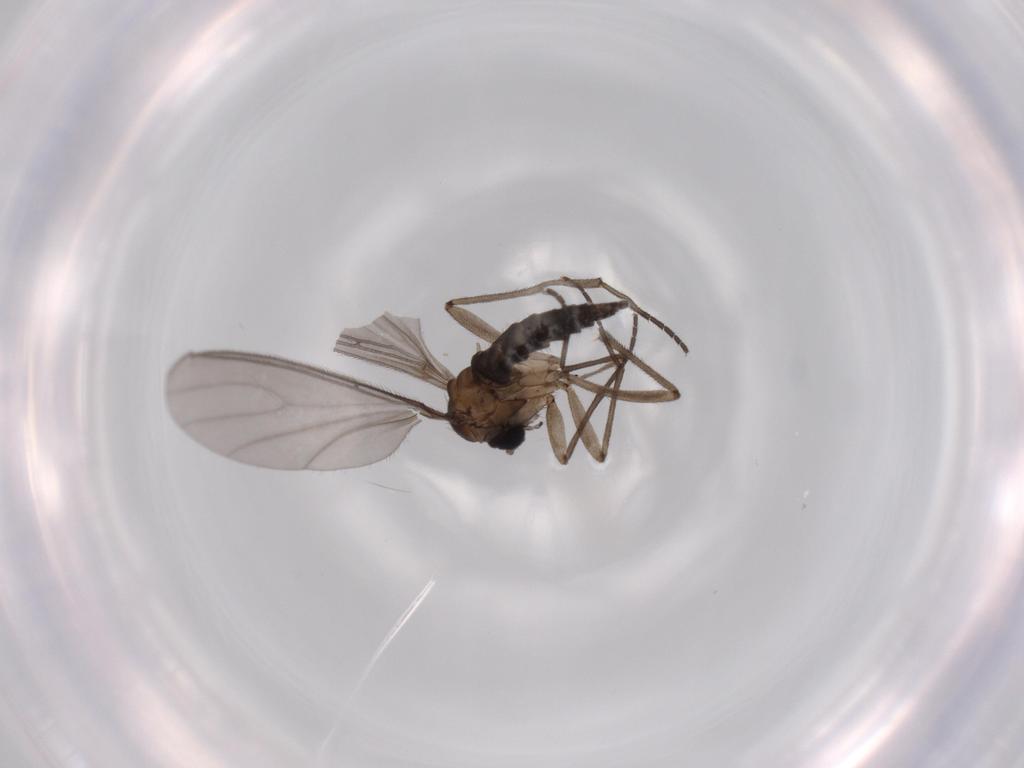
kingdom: Animalia
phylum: Arthropoda
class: Insecta
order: Diptera
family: Sciaridae
